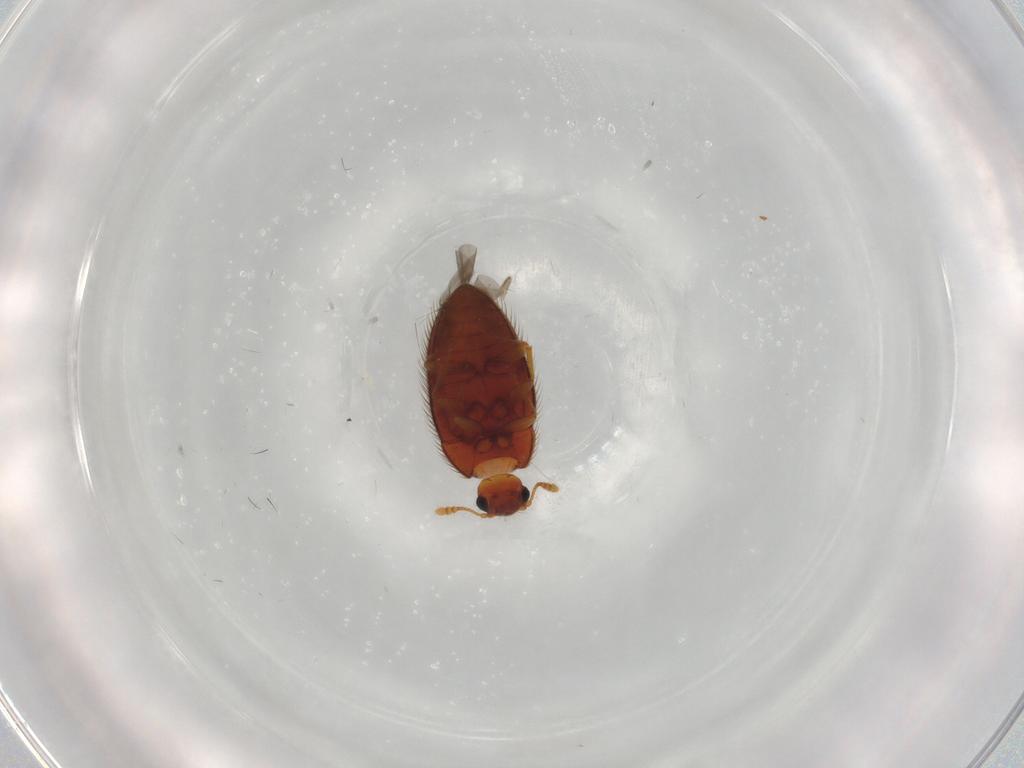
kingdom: Animalia
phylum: Arthropoda
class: Insecta
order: Coleoptera
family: Biphyllidae
